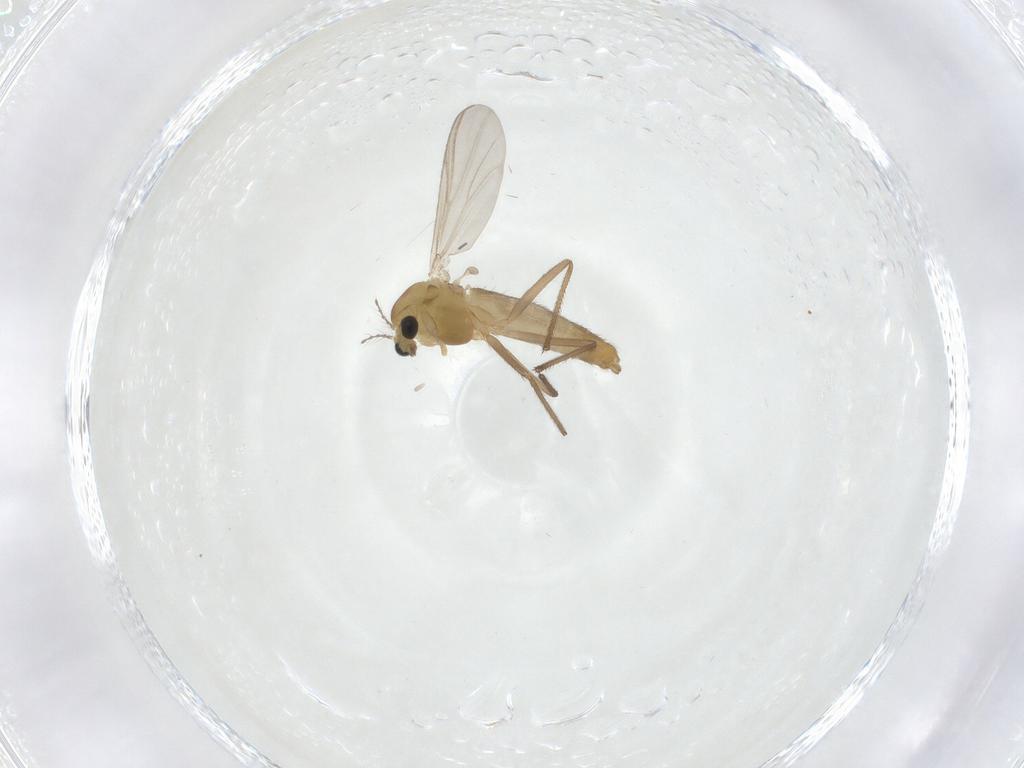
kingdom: Animalia
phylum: Arthropoda
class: Insecta
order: Diptera
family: Chironomidae
